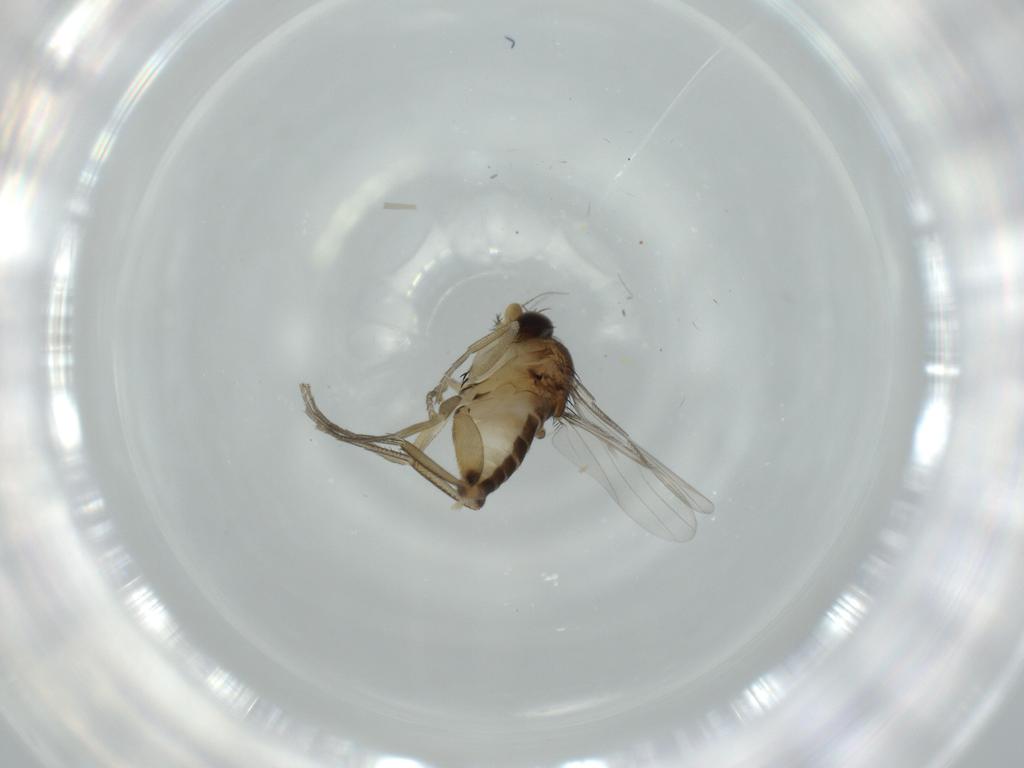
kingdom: Animalia
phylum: Arthropoda
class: Insecta
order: Diptera
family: Phoridae
